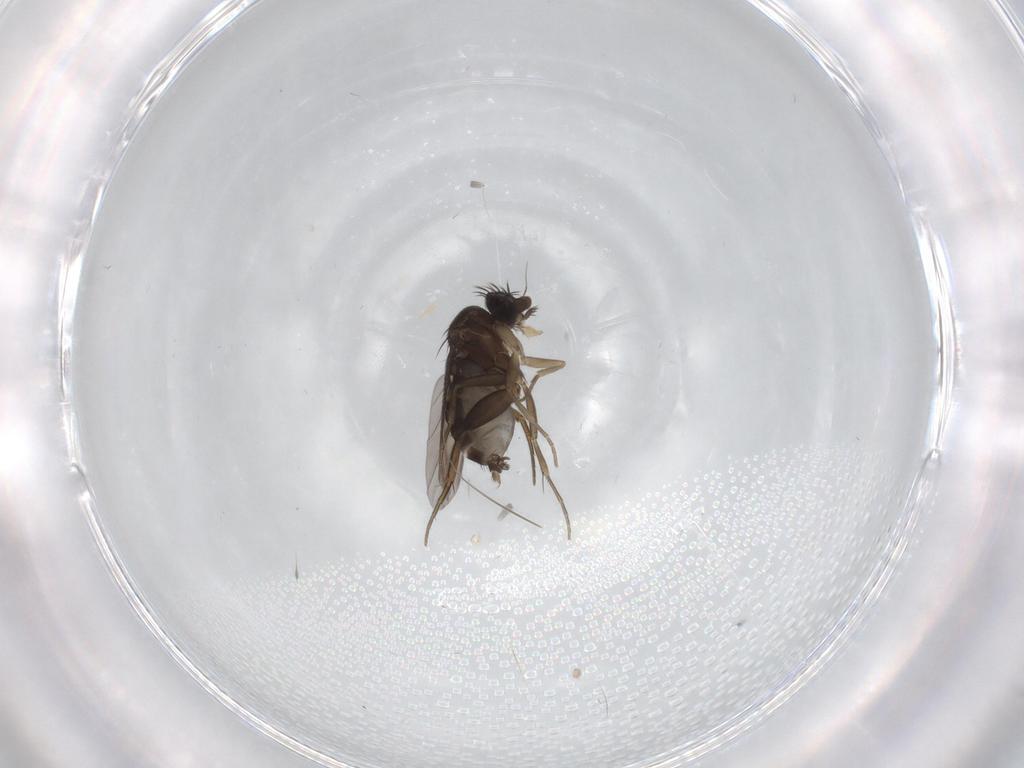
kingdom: Animalia
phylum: Arthropoda
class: Insecta
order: Diptera
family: Phoridae
